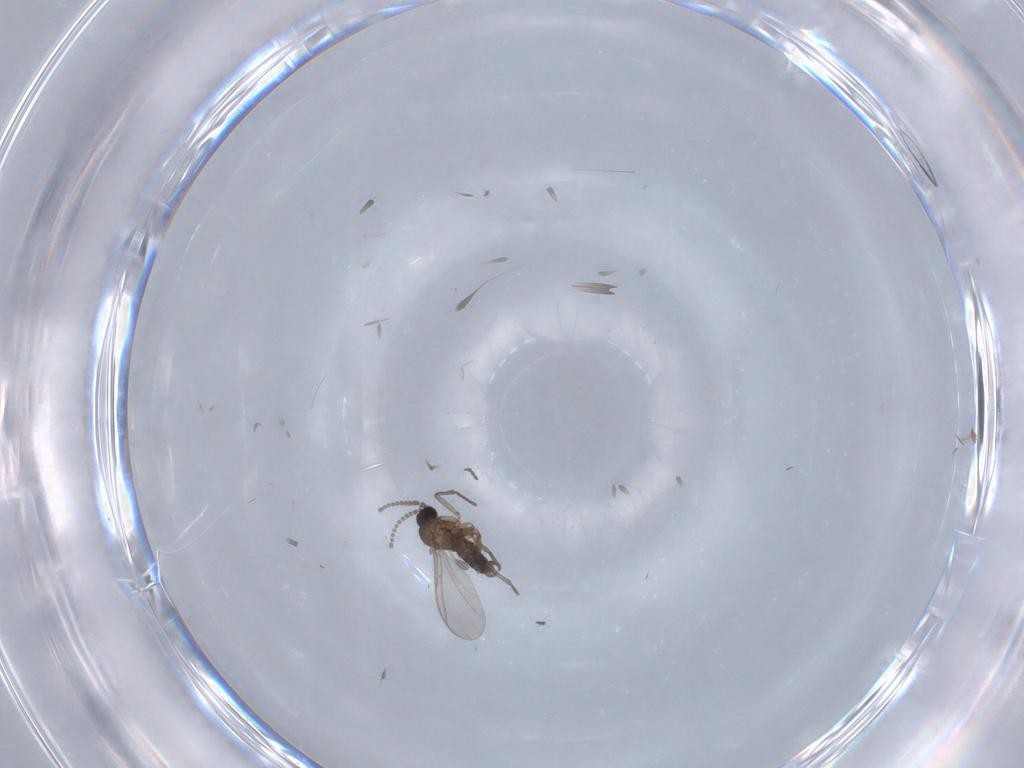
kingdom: Animalia
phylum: Arthropoda
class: Insecta
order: Diptera
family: Sciaridae
